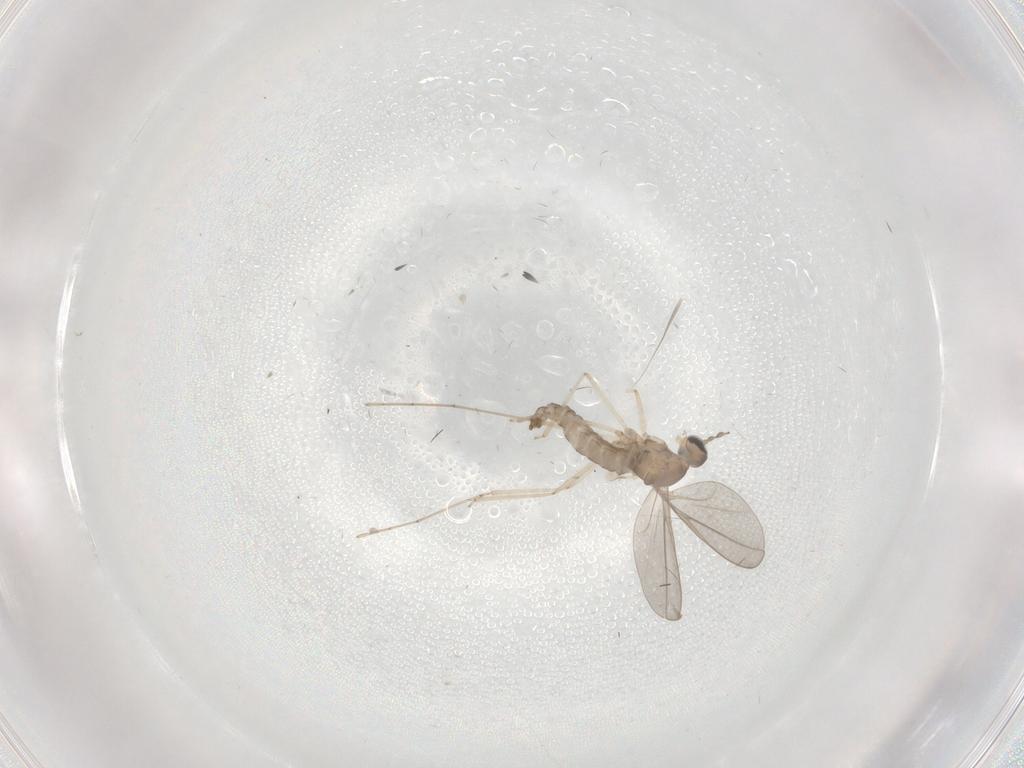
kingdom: Animalia
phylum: Arthropoda
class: Insecta
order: Diptera
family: Cecidomyiidae
